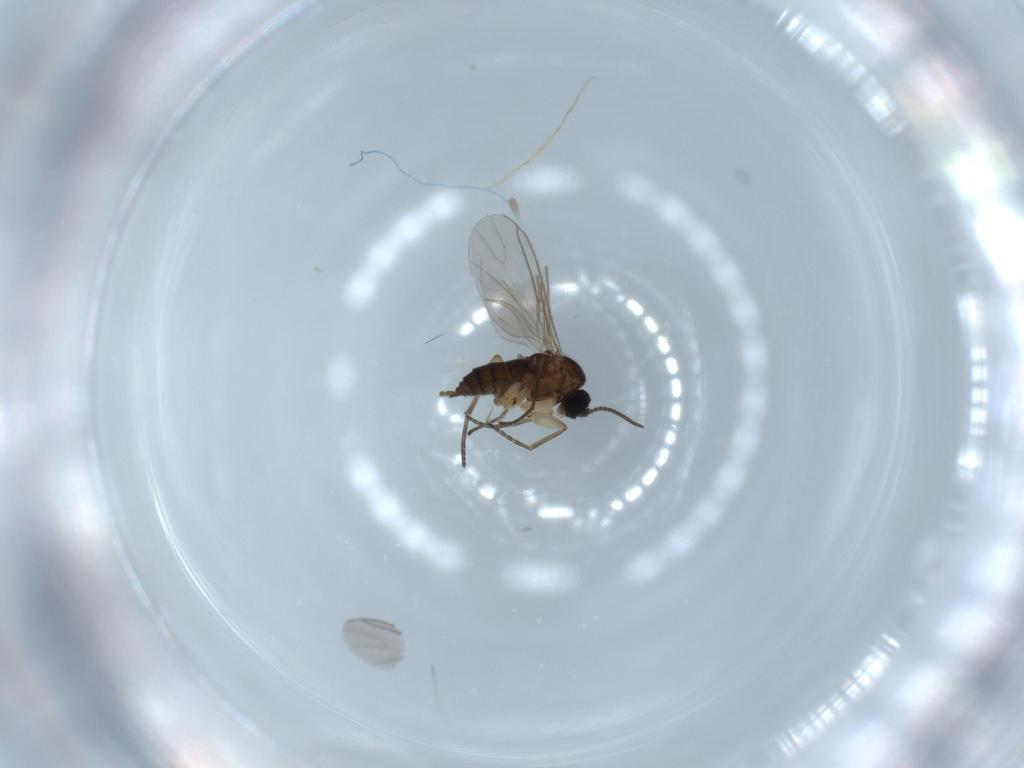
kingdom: Animalia
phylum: Arthropoda
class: Insecta
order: Diptera
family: Sciaridae
